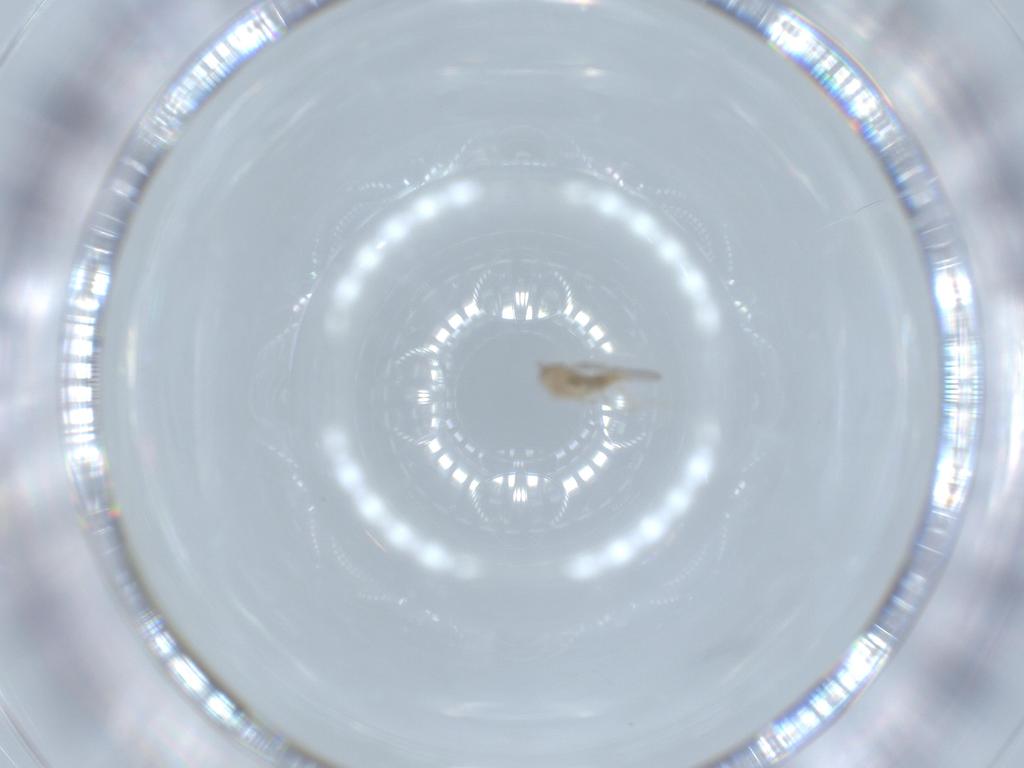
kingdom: Animalia
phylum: Arthropoda
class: Insecta
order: Diptera
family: Cecidomyiidae
